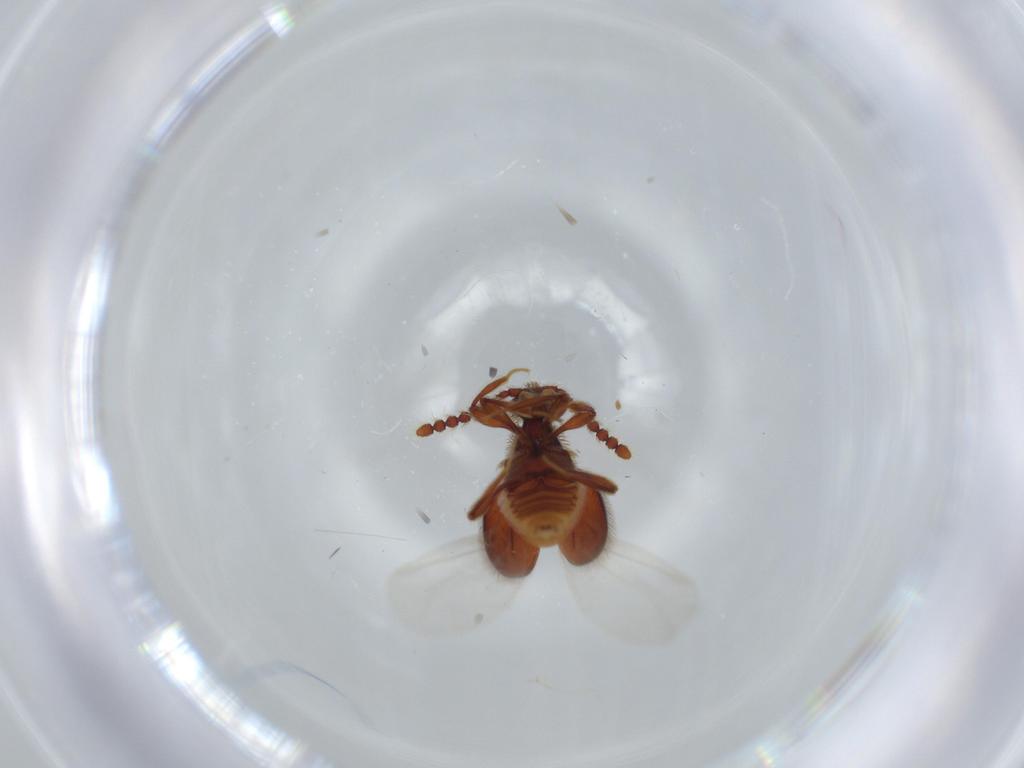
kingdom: Animalia
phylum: Arthropoda
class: Insecta
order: Coleoptera
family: Staphylinidae
